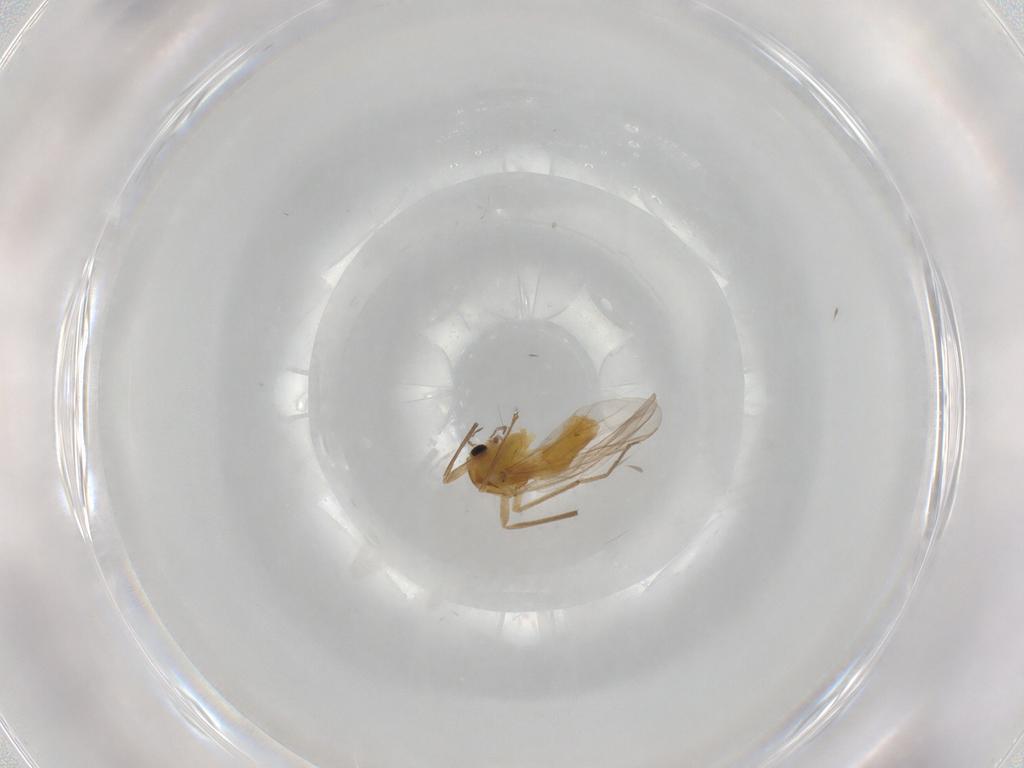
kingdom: Animalia
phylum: Arthropoda
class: Insecta
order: Diptera
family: Chironomidae
